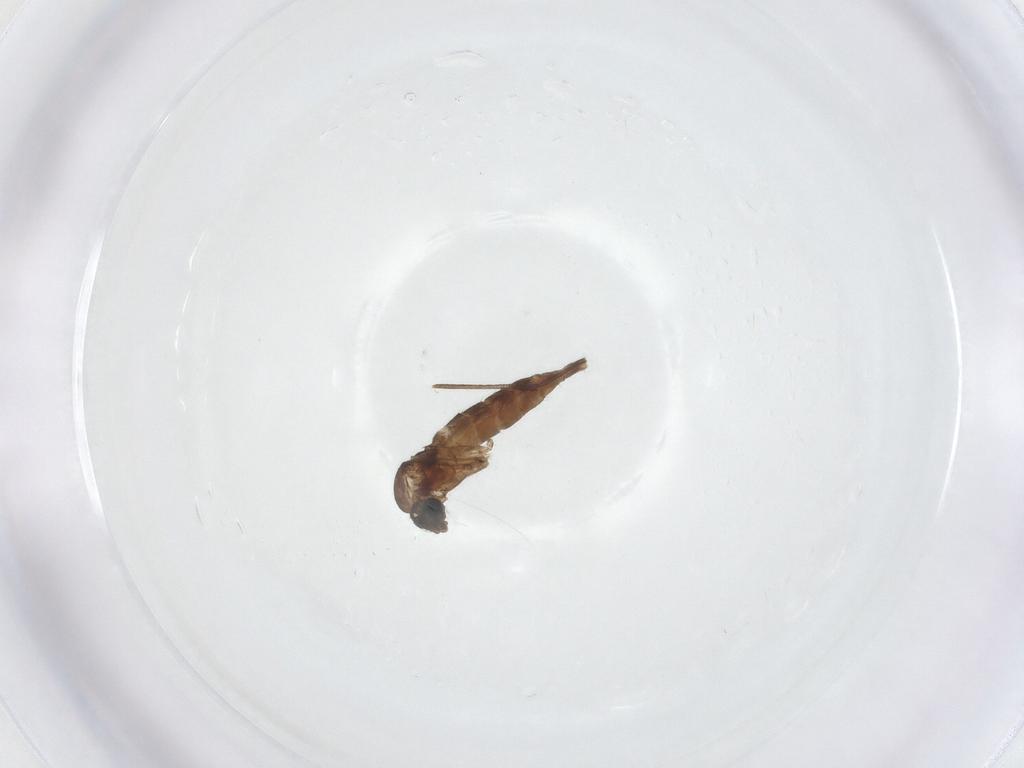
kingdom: Animalia
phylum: Arthropoda
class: Insecta
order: Diptera
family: Sciaridae
